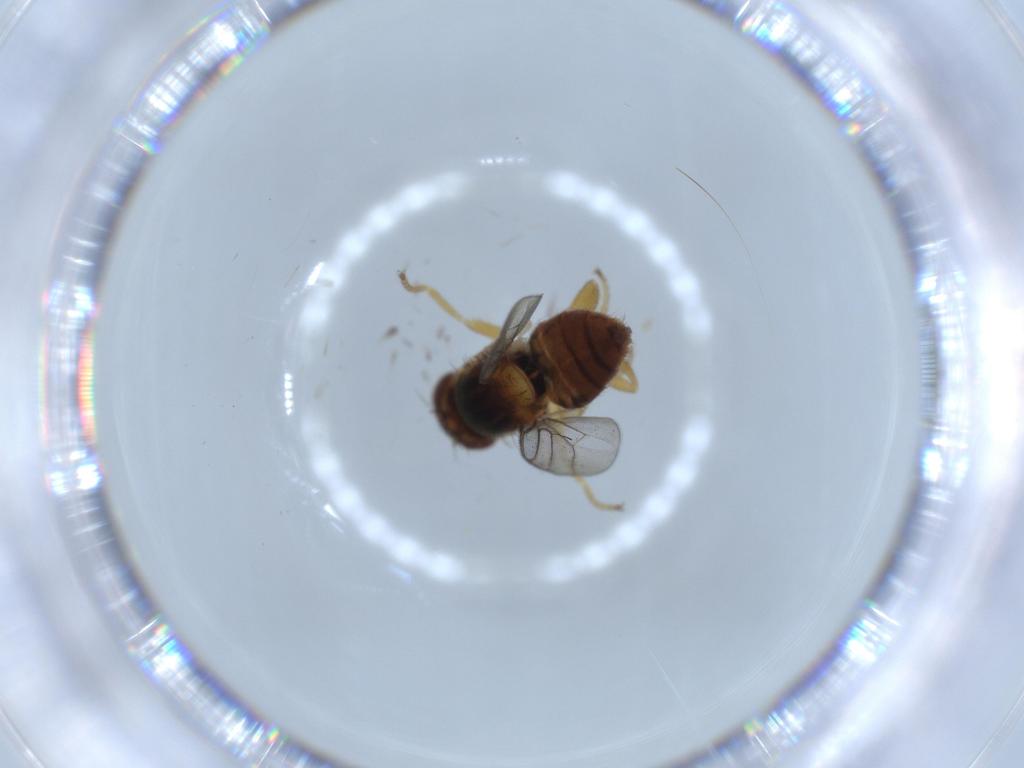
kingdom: Animalia
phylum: Arthropoda
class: Insecta
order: Diptera
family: Chloropidae
